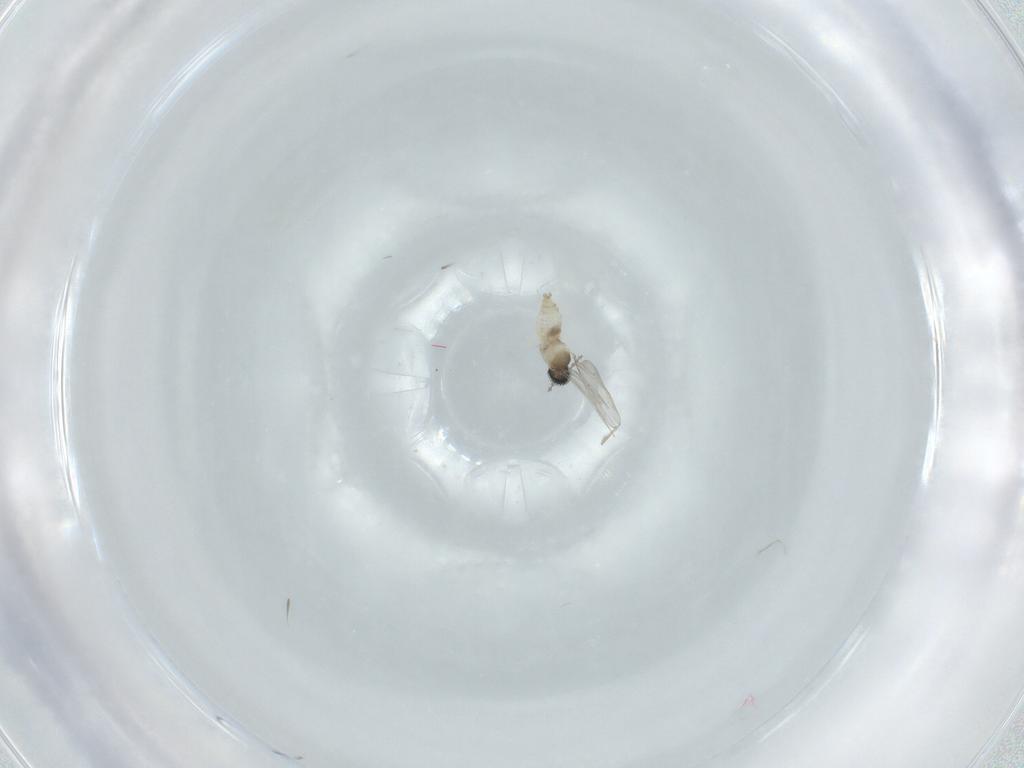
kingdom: Animalia
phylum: Arthropoda
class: Insecta
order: Diptera
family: Cecidomyiidae
